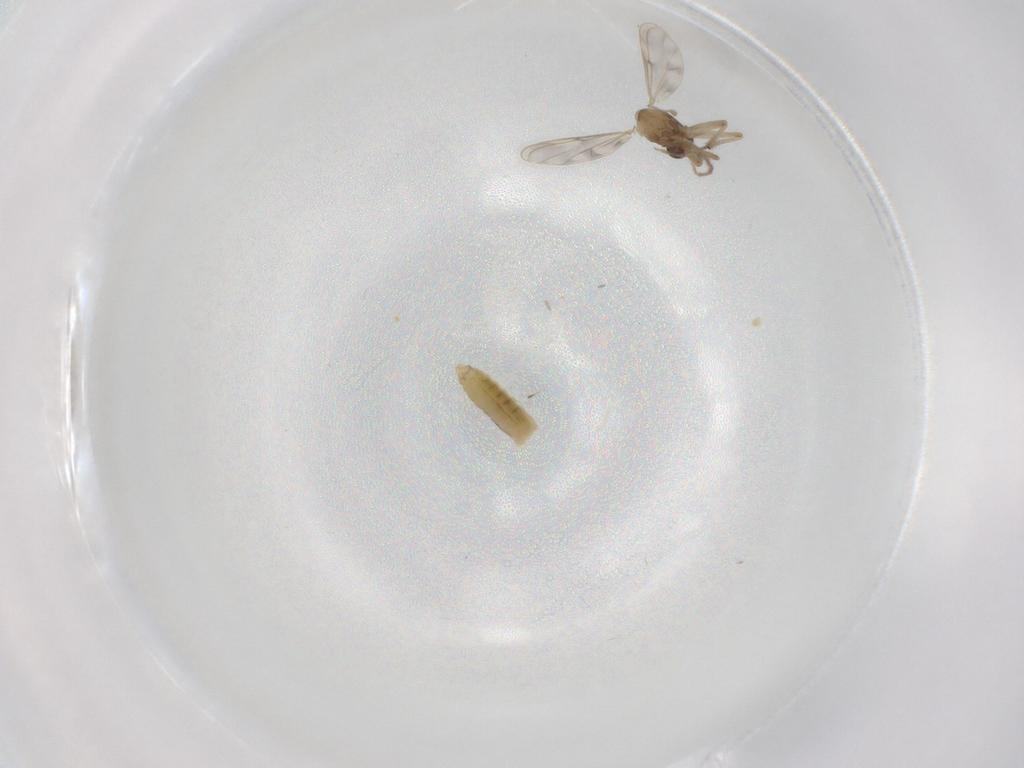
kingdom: Animalia
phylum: Arthropoda
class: Insecta
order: Diptera
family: Chironomidae
